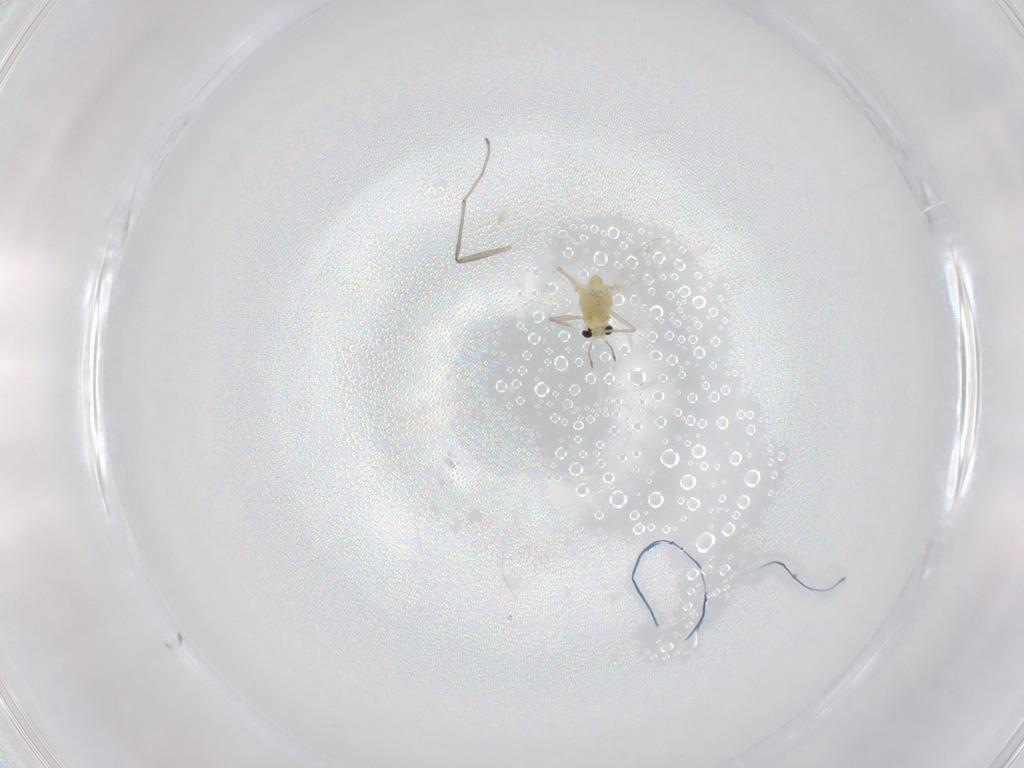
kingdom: Animalia
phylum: Arthropoda
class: Insecta
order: Diptera
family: Chironomidae
